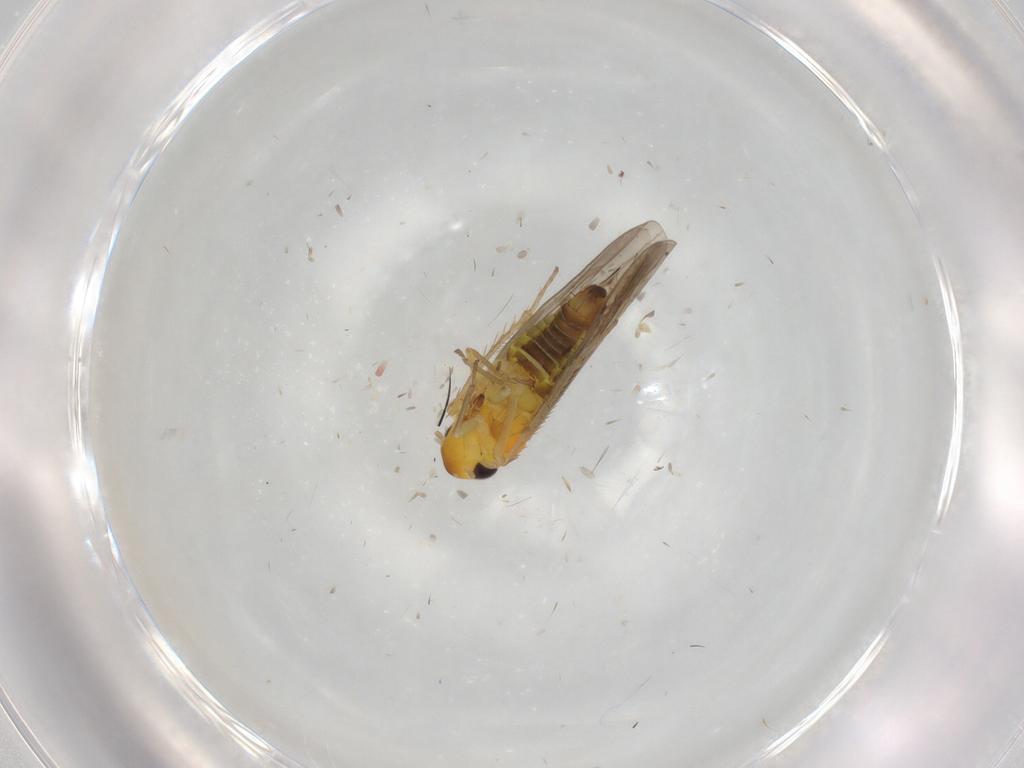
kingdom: Animalia
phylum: Arthropoda
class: Insecta
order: Hemiptera
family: Cicadellidae
